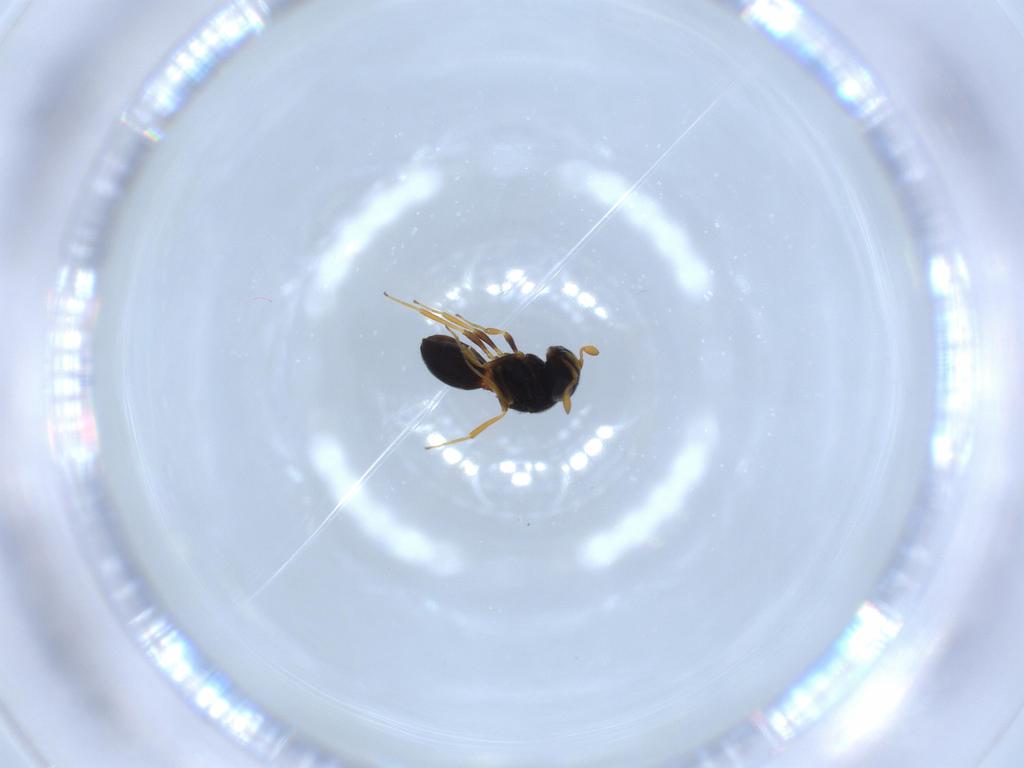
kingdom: Animalia
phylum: Arthropoda
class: Insecta
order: Hymenoptera
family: Scelionidae
